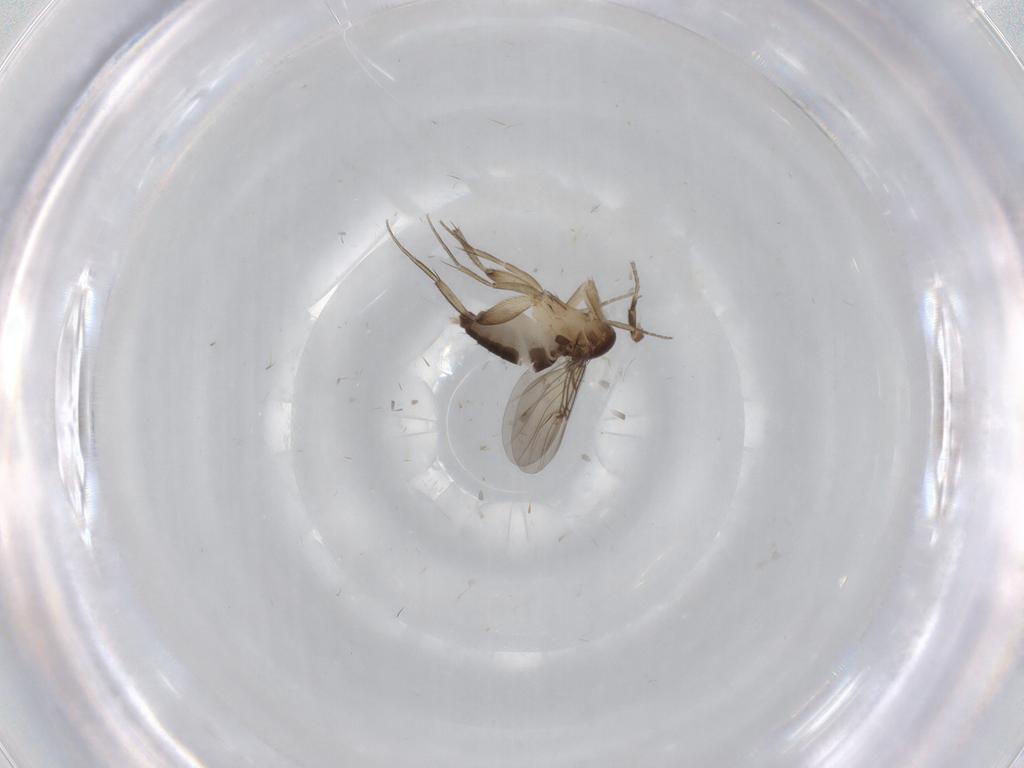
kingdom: Animalia
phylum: Arthropoda
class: Insecta
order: Diptera
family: Phoridae
